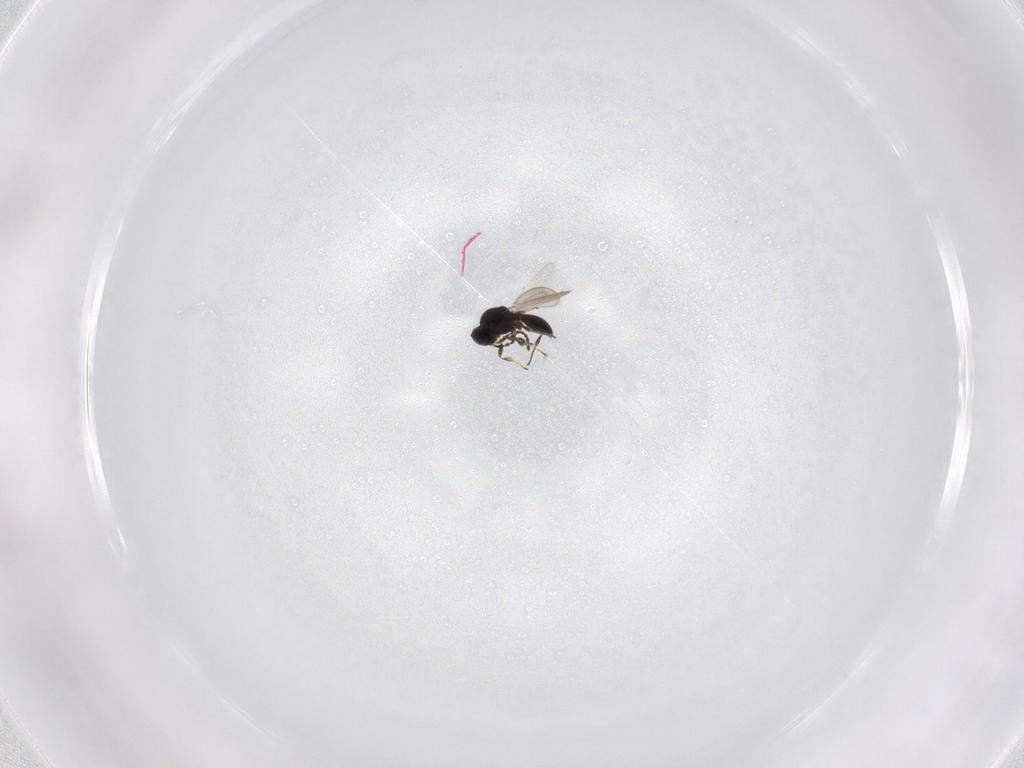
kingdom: Animalia
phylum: Arthropoda
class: Insecta
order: Hymenoptera
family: Platygastridae
